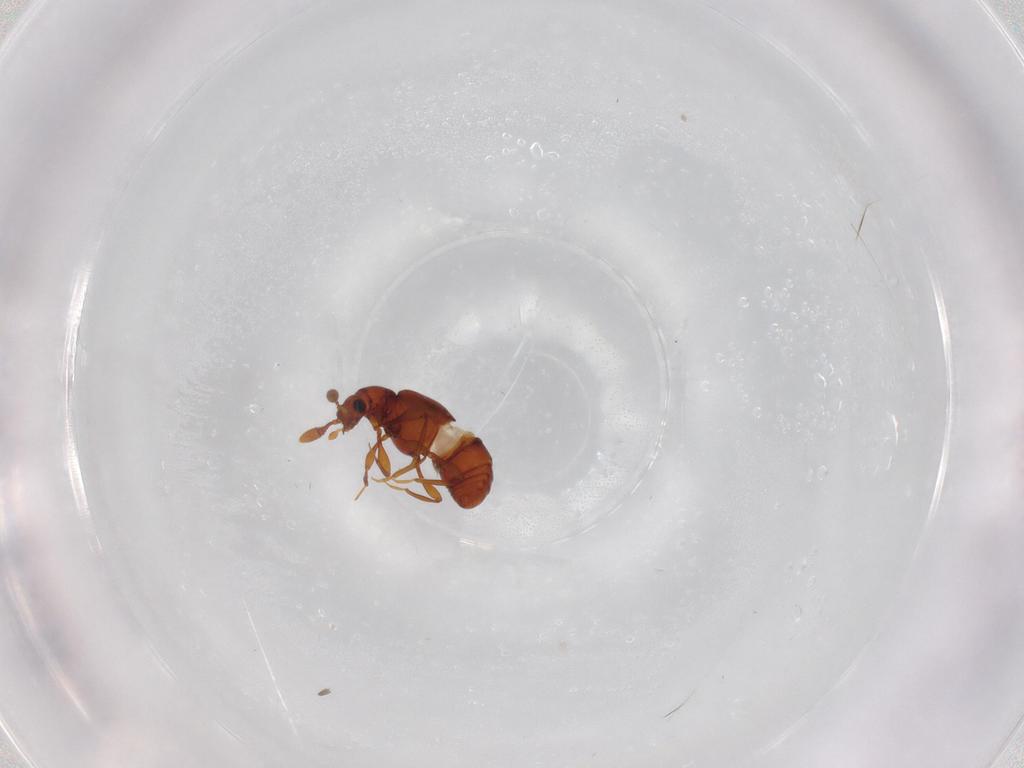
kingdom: Animalia
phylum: Arthropoda
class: Insecta
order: Coleoptera
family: Staphylinidae
